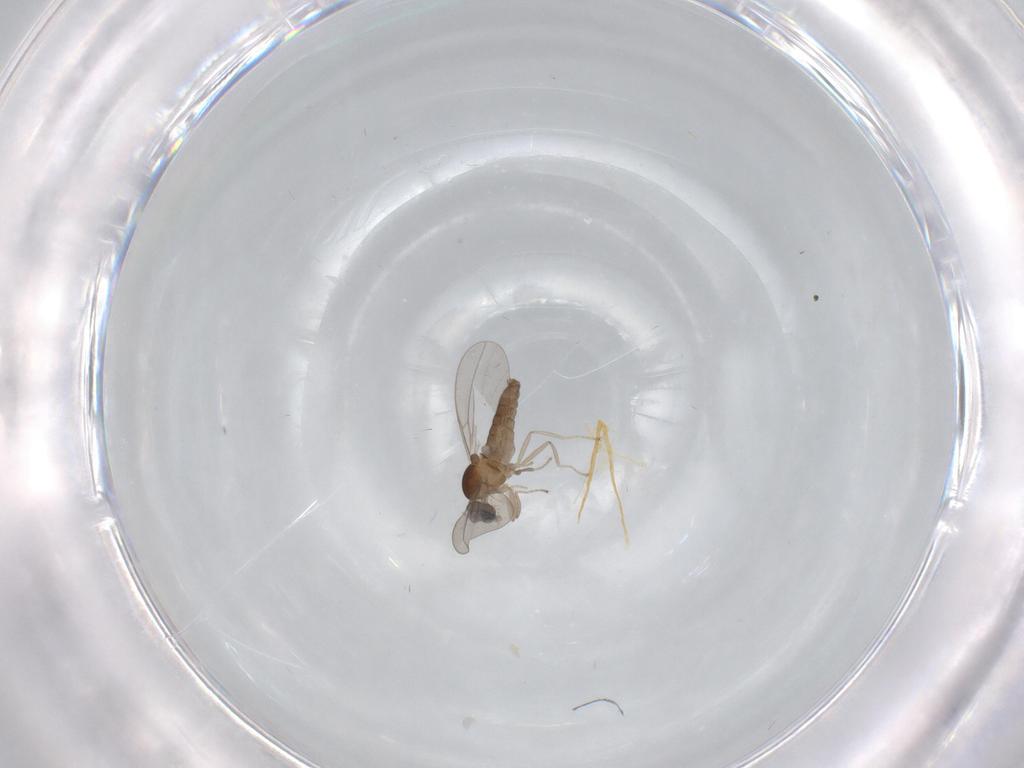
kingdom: Animalia
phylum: Arthropoda
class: Insecta
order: Diptera
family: Cecidomyiidae
